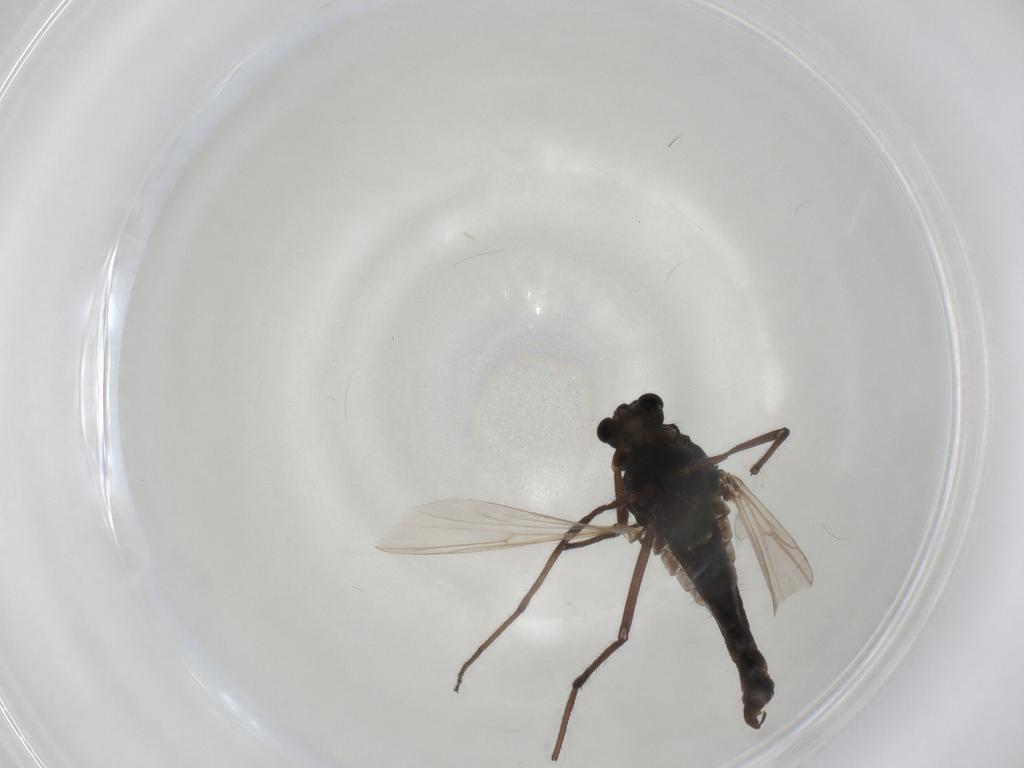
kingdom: Animalia
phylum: Arthropoda
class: Insecta
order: Diptera
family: Chironomidae
